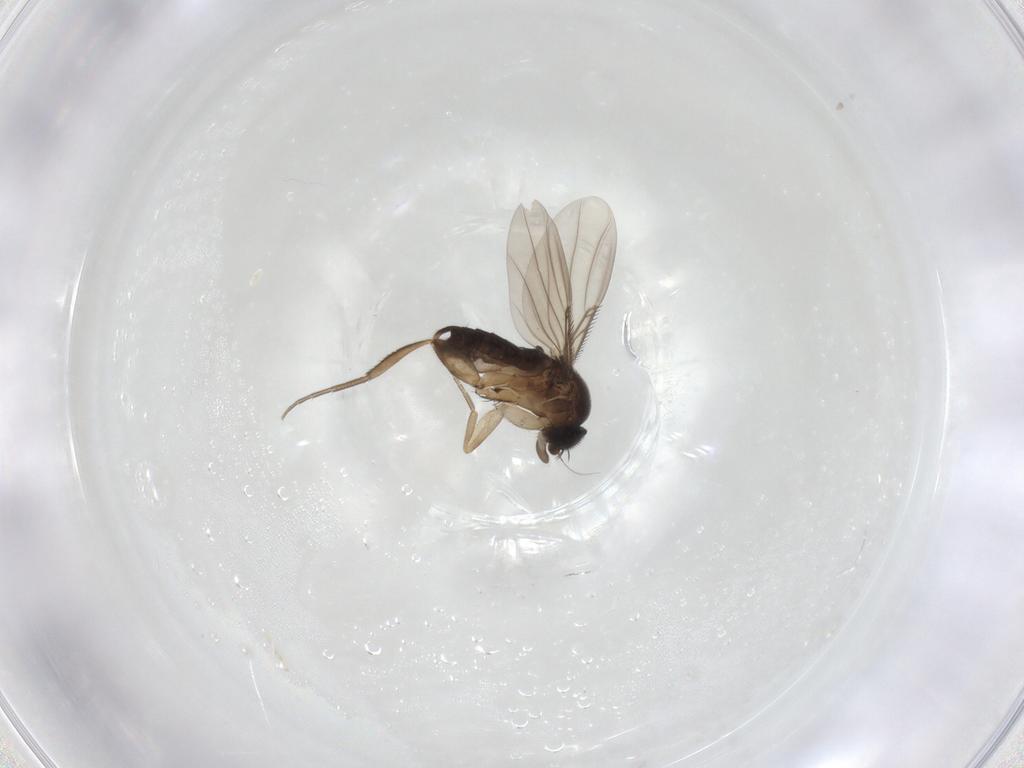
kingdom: Animalia
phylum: Arthropoda
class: Insecta
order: Diptera
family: Phoridae
